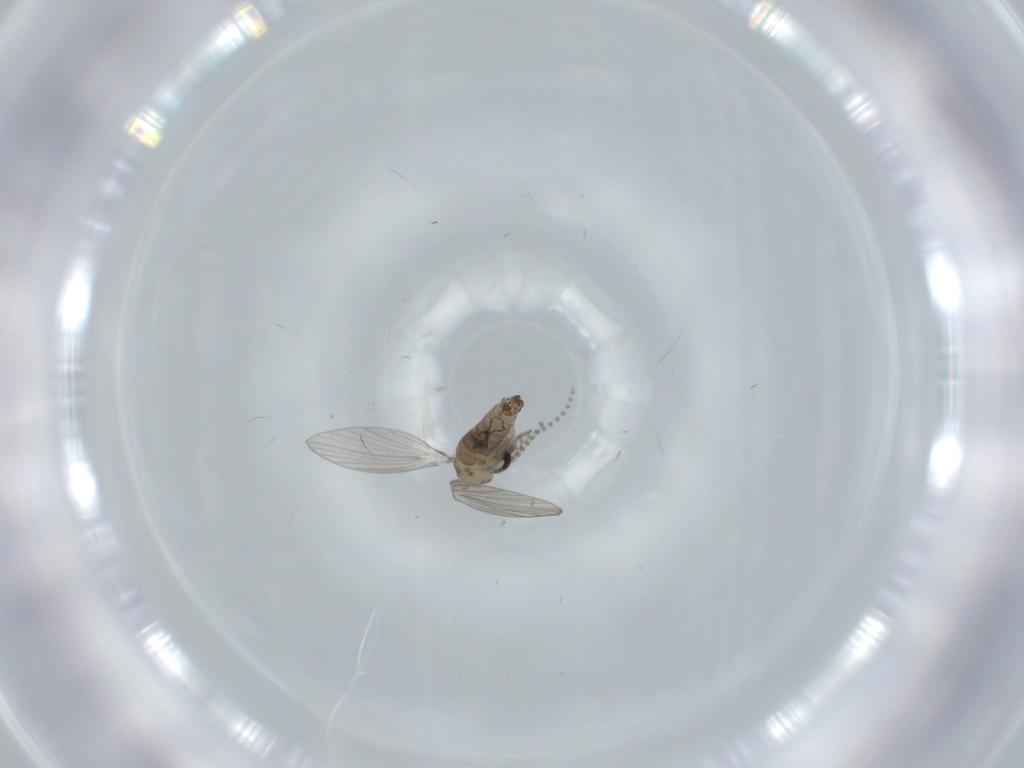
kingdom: Animalia
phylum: Arthropoda
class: Insecta
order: Diptera
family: Psychodidae
